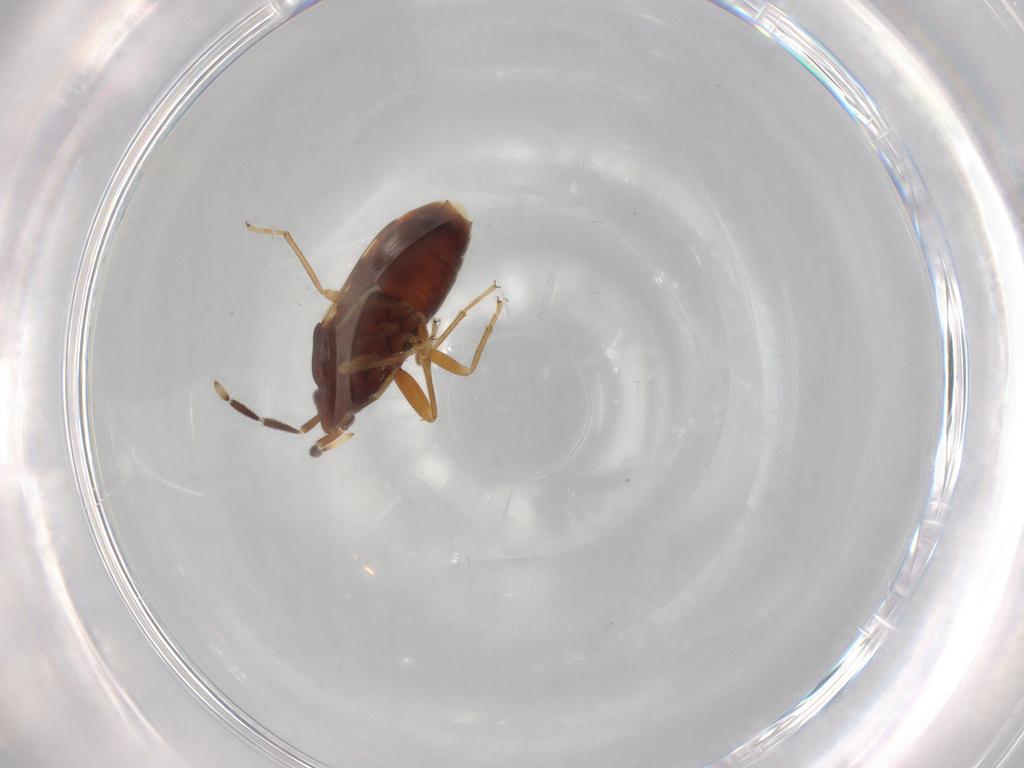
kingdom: Animalia
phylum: Arthropoda
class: Insecta
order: Hemiptera
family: Rhyparochromidae
